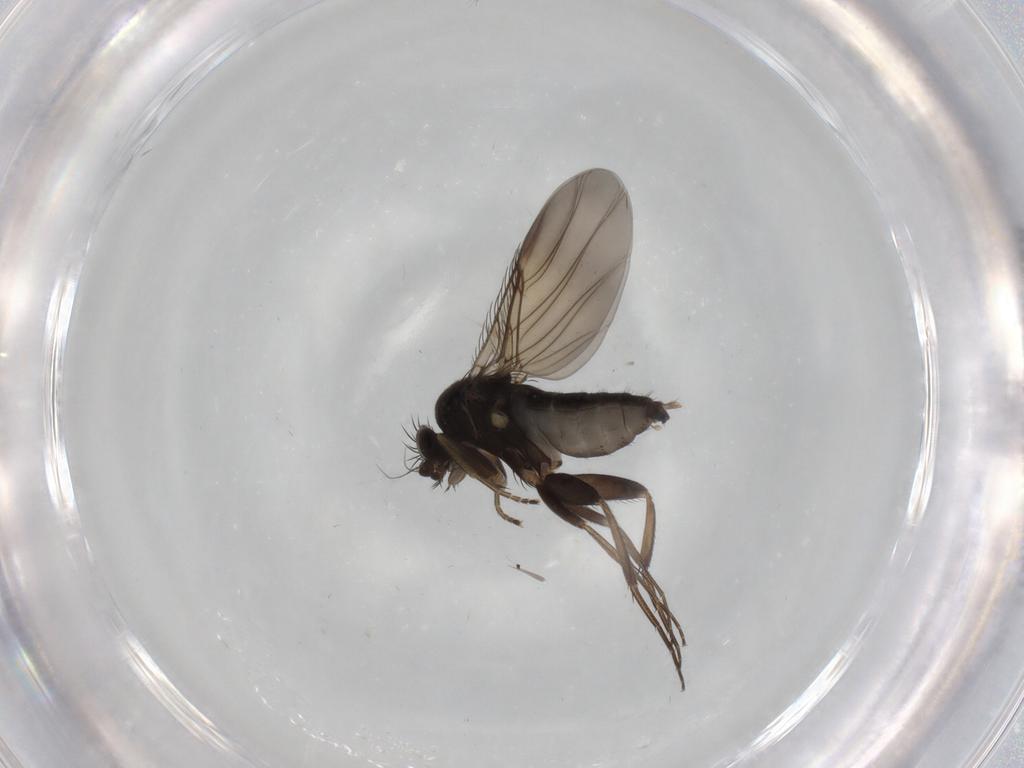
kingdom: Animalia
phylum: Arthropoda
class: Insecta
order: Diptera
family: Phoridae
